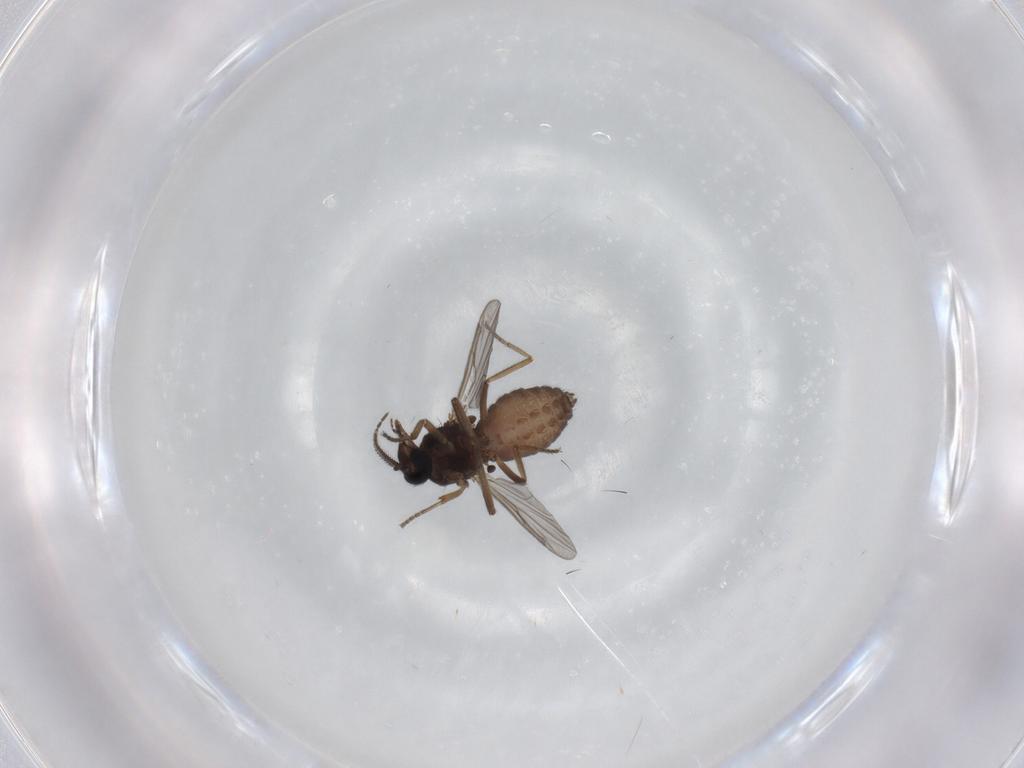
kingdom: Animalia
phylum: Arthropoda
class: Insecta
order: Diptera
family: Ceratopogonidae
